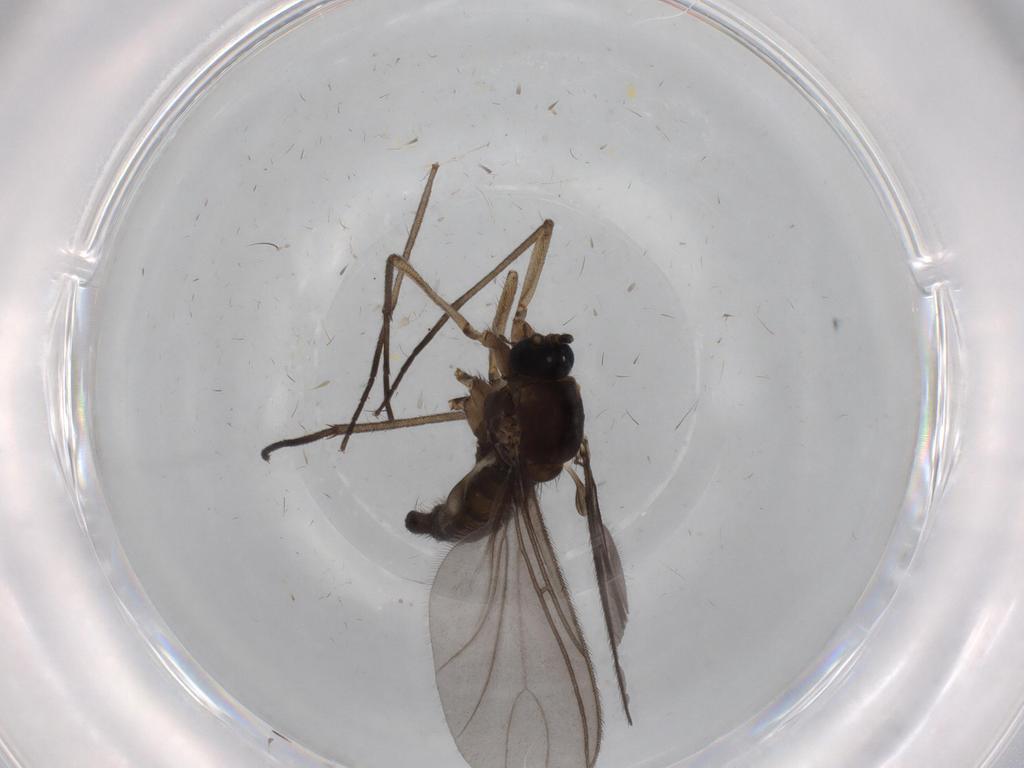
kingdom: Animalia
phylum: Arthropoda
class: Insecta
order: Diptera
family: Sciaridae
